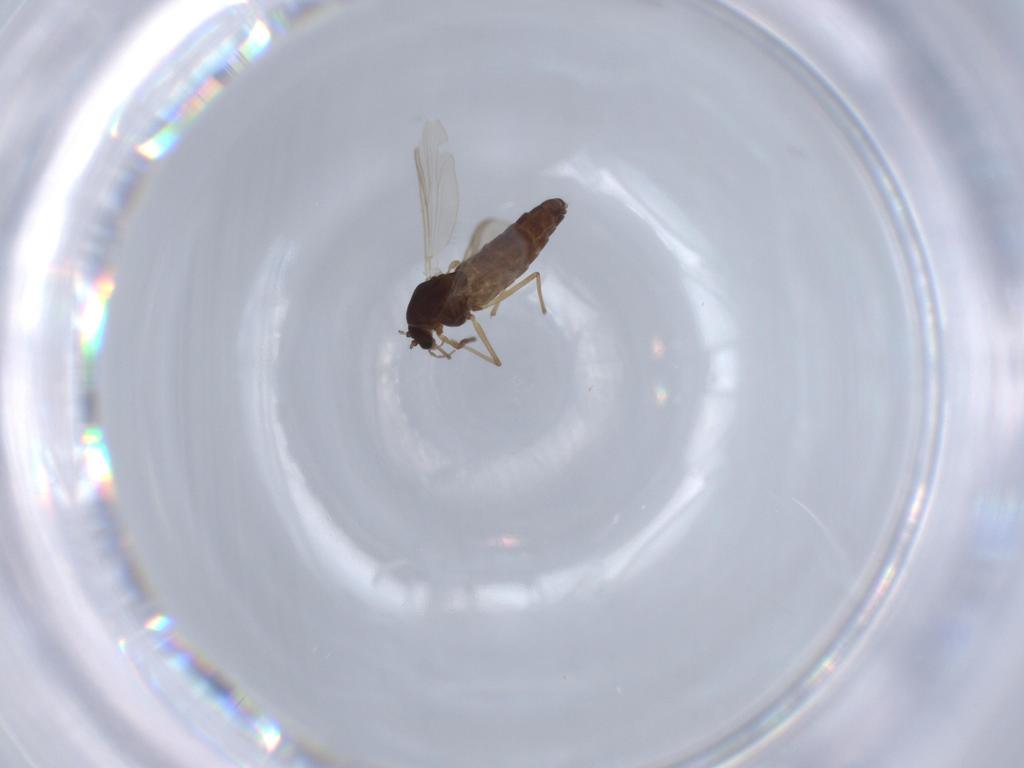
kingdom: Animalia
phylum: Arthropoda
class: Insecta
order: Diptera
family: Chironomidae
